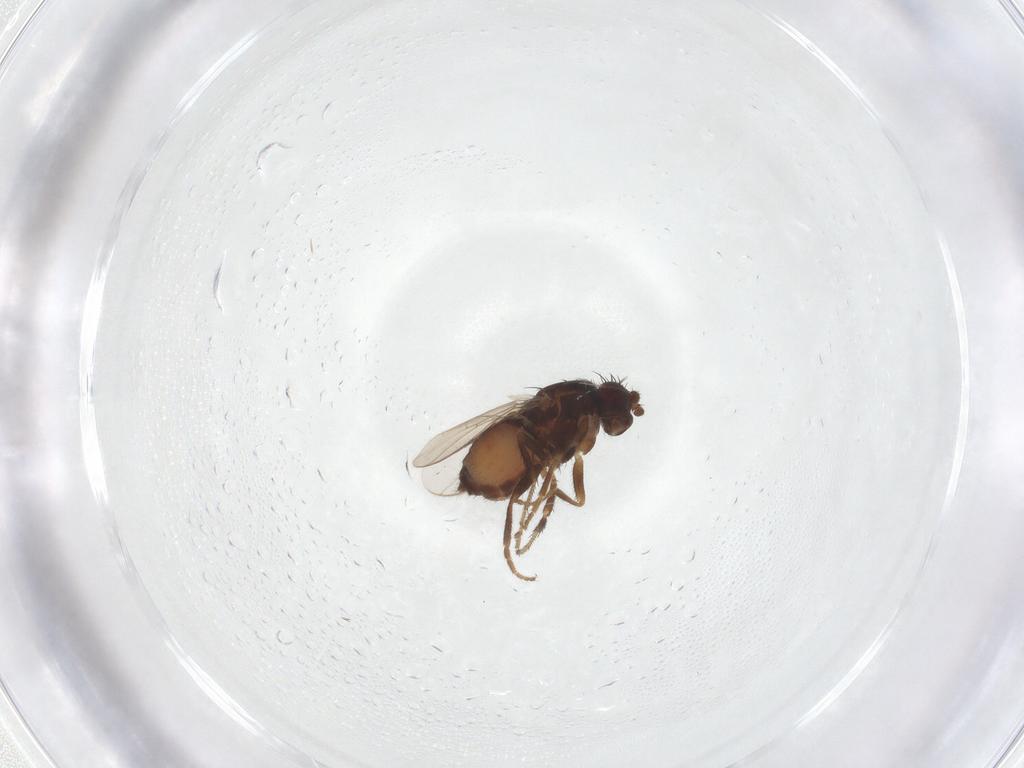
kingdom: Animalia
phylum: Arthropoda
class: Insecta
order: Diptera
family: Sphaeroceridae
